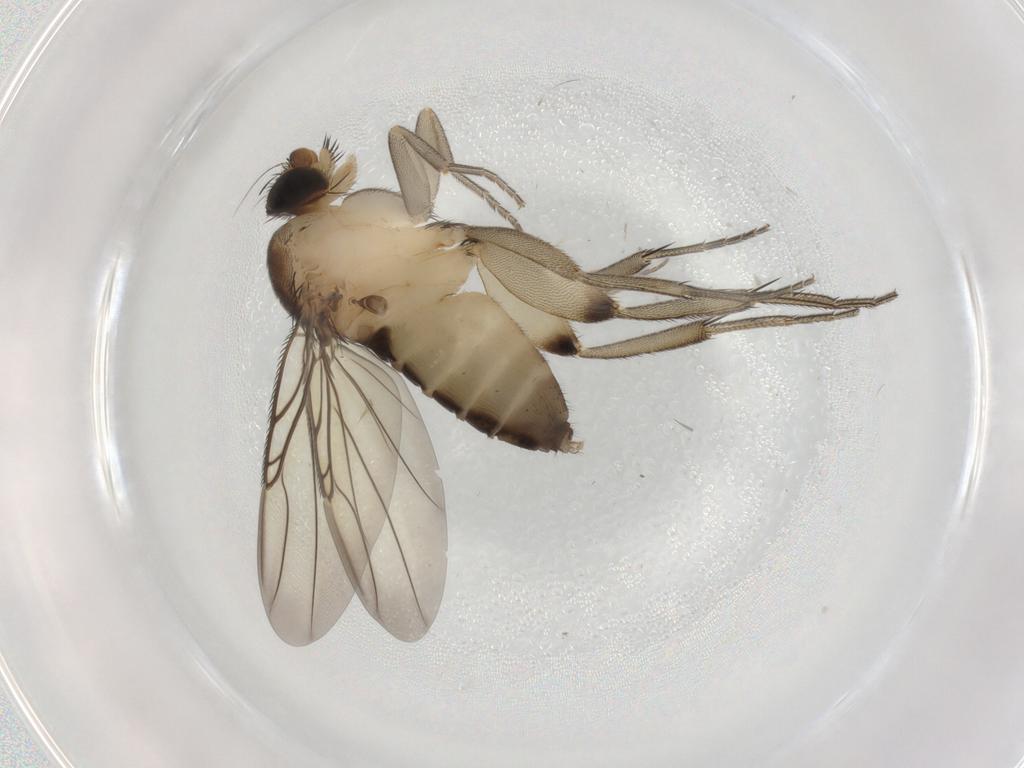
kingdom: Animalia
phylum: Arthropoda
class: Insecta
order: Diptera
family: Phoridae
